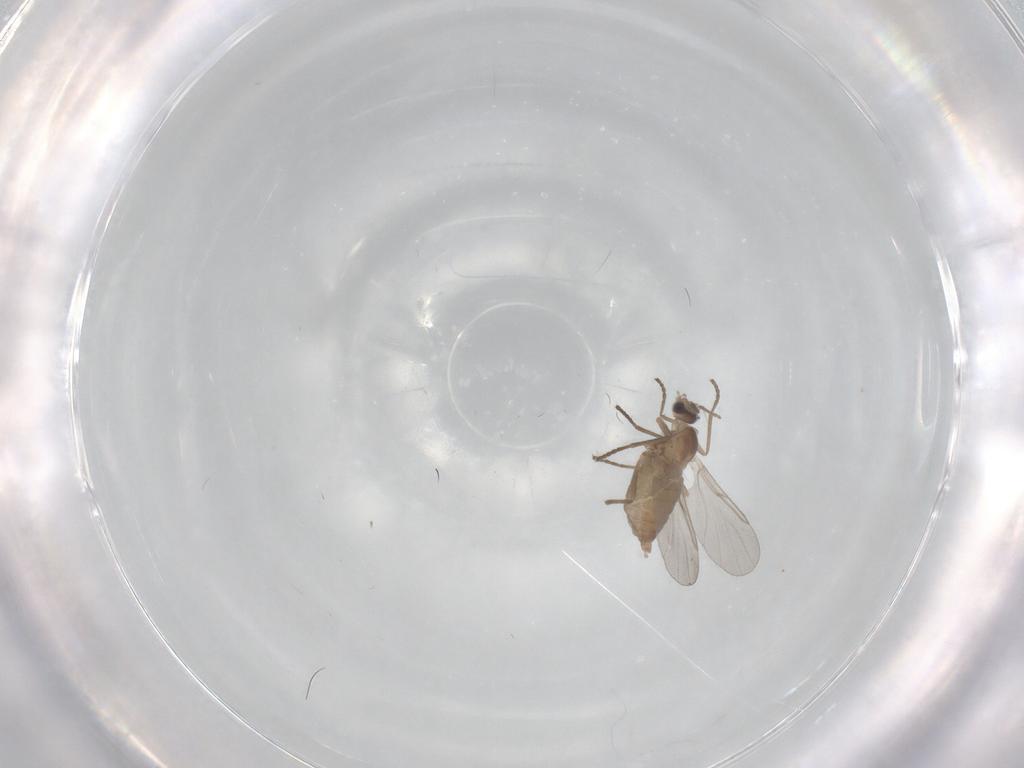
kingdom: Animalia
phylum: Arthropoda
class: Insecta
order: Diptera
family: Cecidomyiidae
